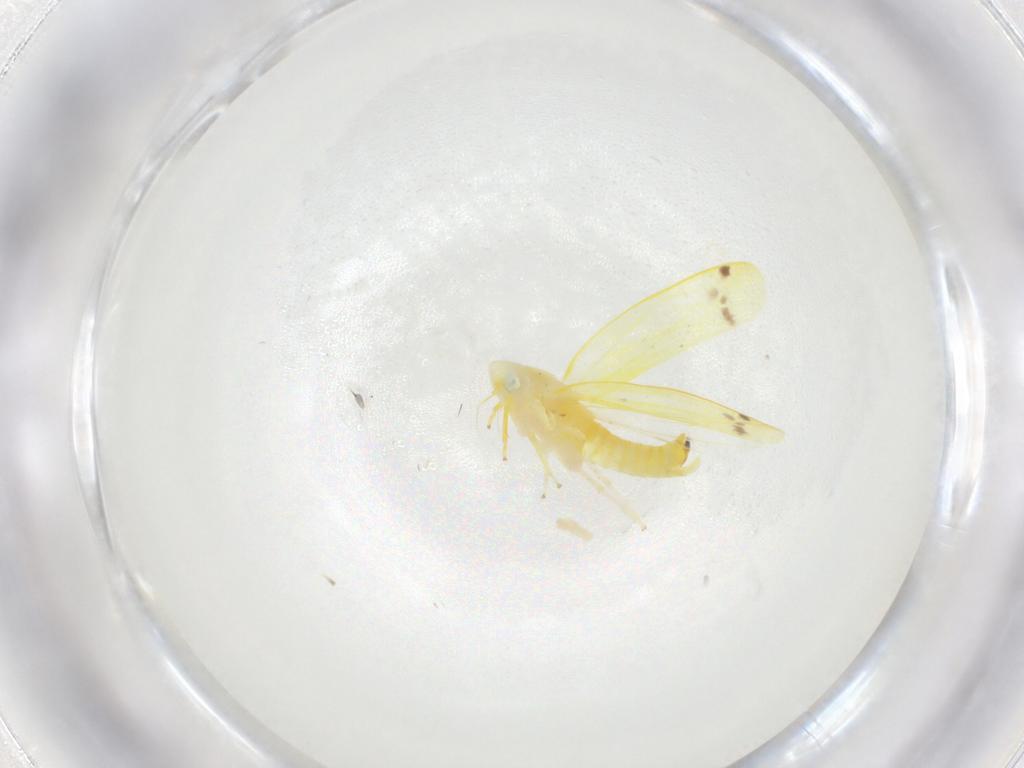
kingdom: Animalia
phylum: Arthropoda
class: Insecta
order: Hemiptera
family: Cicadellidae
